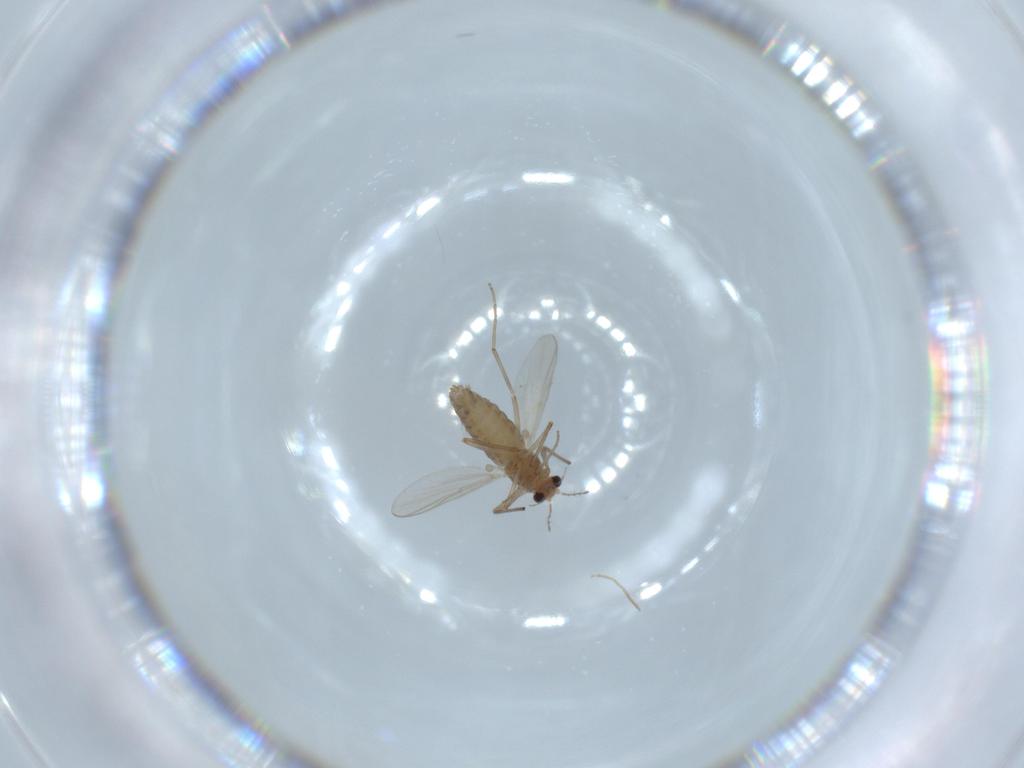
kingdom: Animalia
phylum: Arthropoda
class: Insecta
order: Diptera
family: Chironomidae
